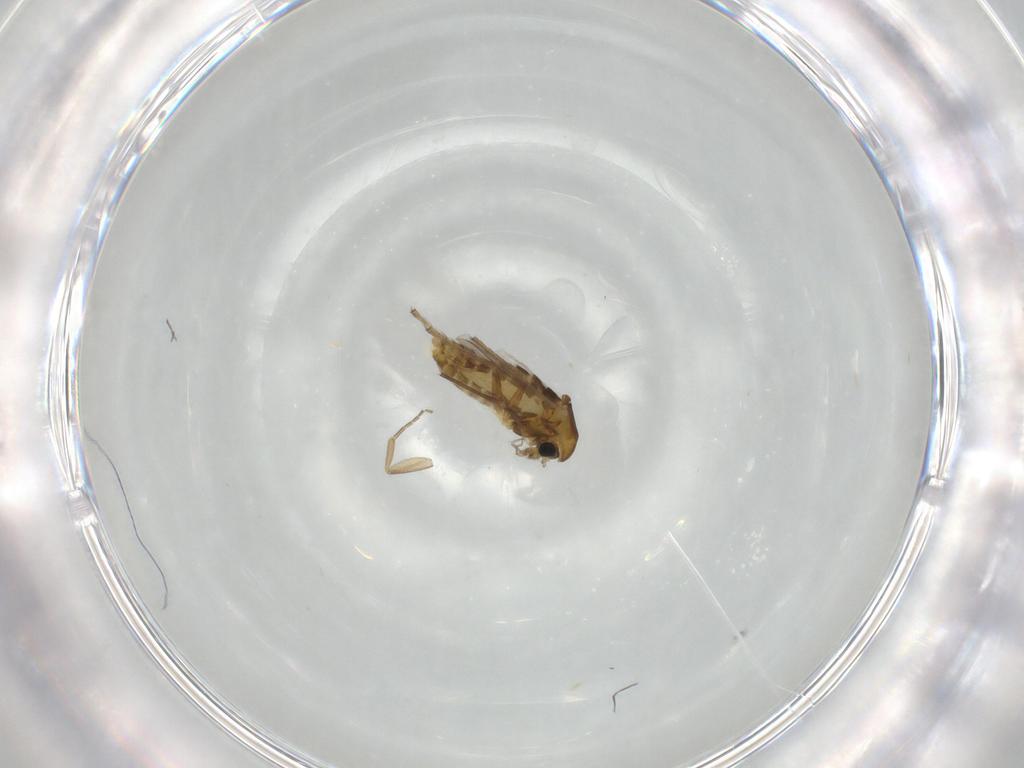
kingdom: Animalia
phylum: Arthropoda
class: Insecta
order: Diptera
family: Chironomidae
